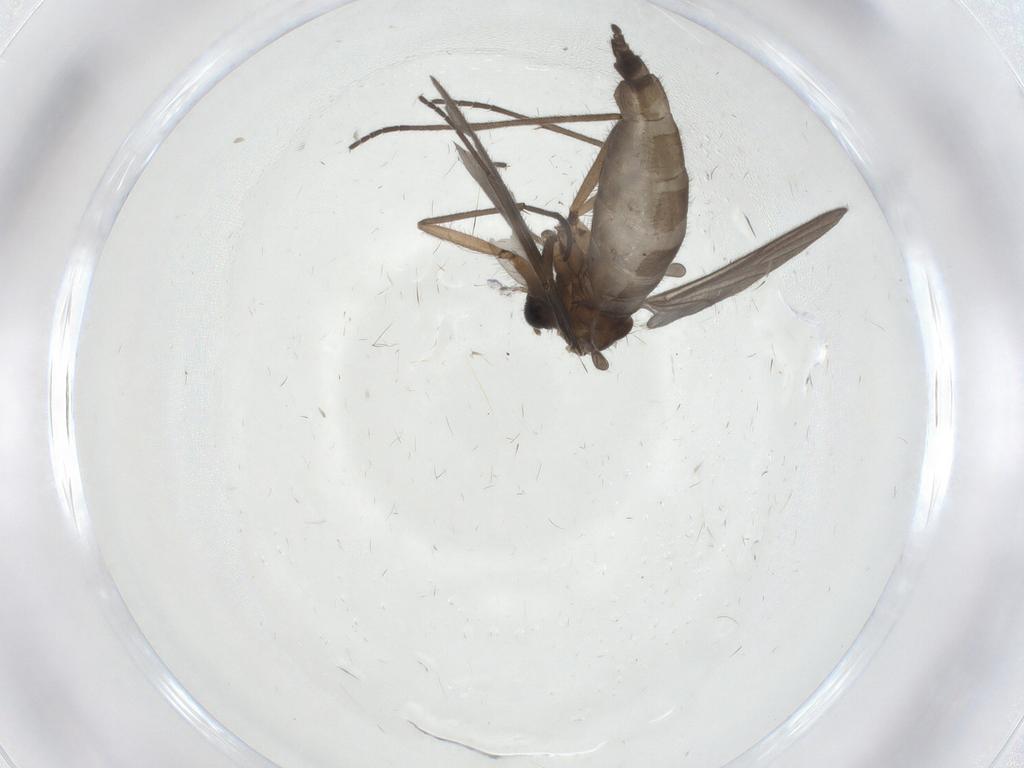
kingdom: Animalia
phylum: Arthropoda
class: Insecta
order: Diptera
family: Sciaridae
